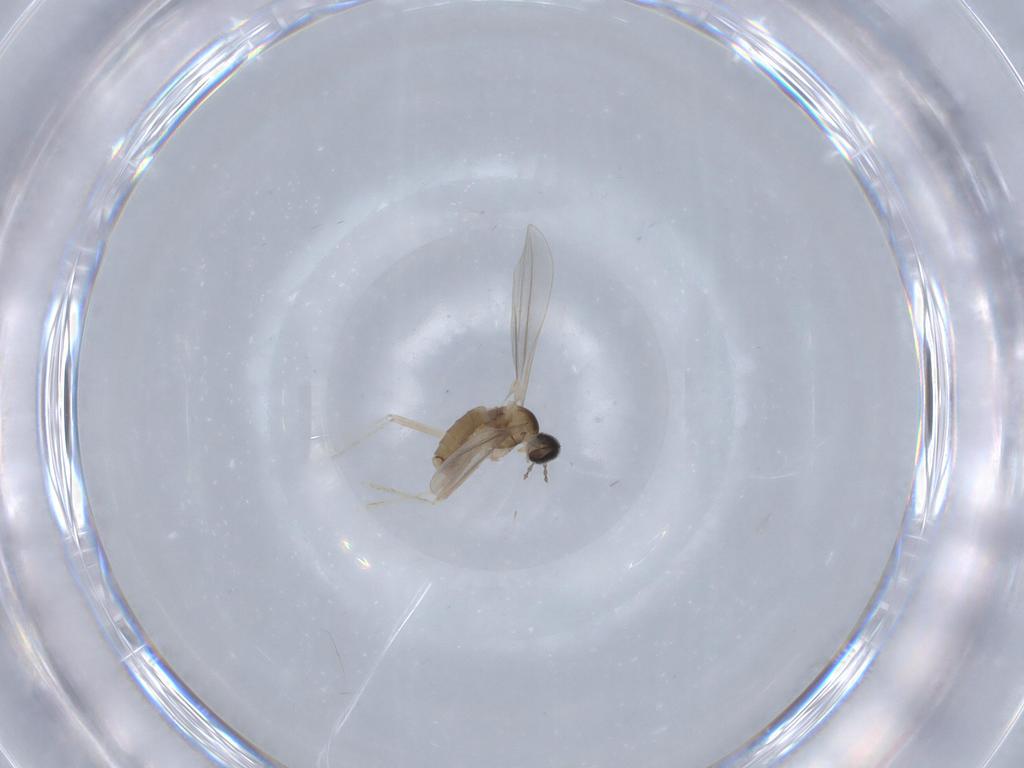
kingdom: Animalia
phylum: Arthropoda
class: Insecta
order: Diptera
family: Cecidomyiidae
